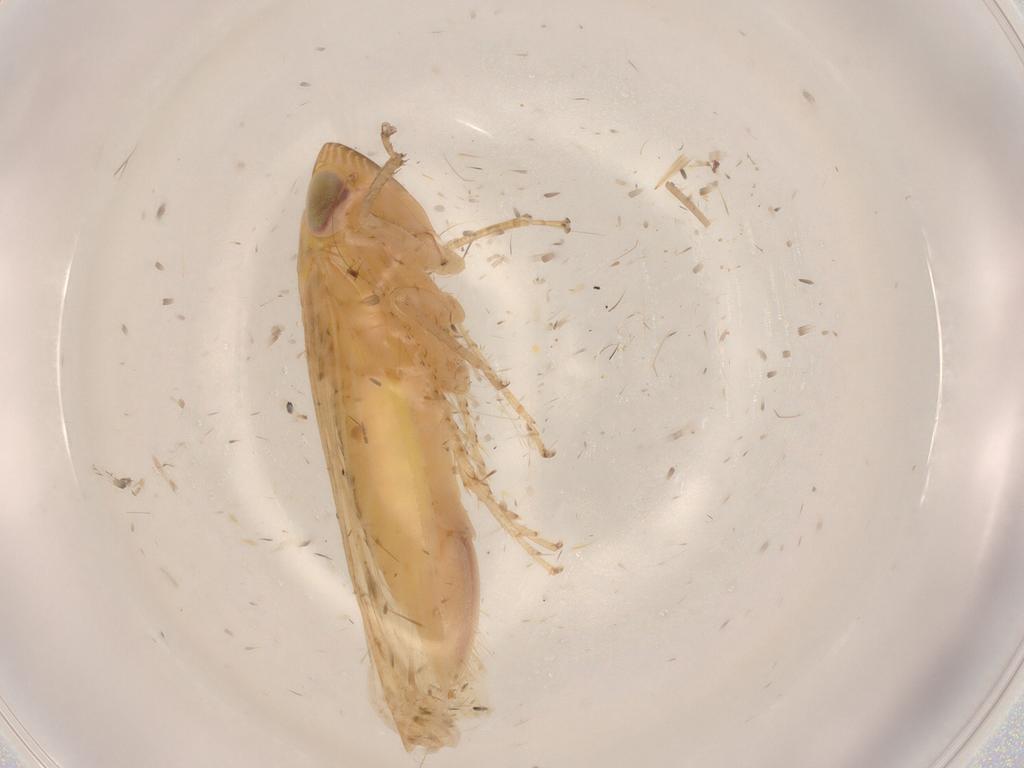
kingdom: Animalia
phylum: Arthropoda
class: Insecta
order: Hemiptera
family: Cicadellidae
